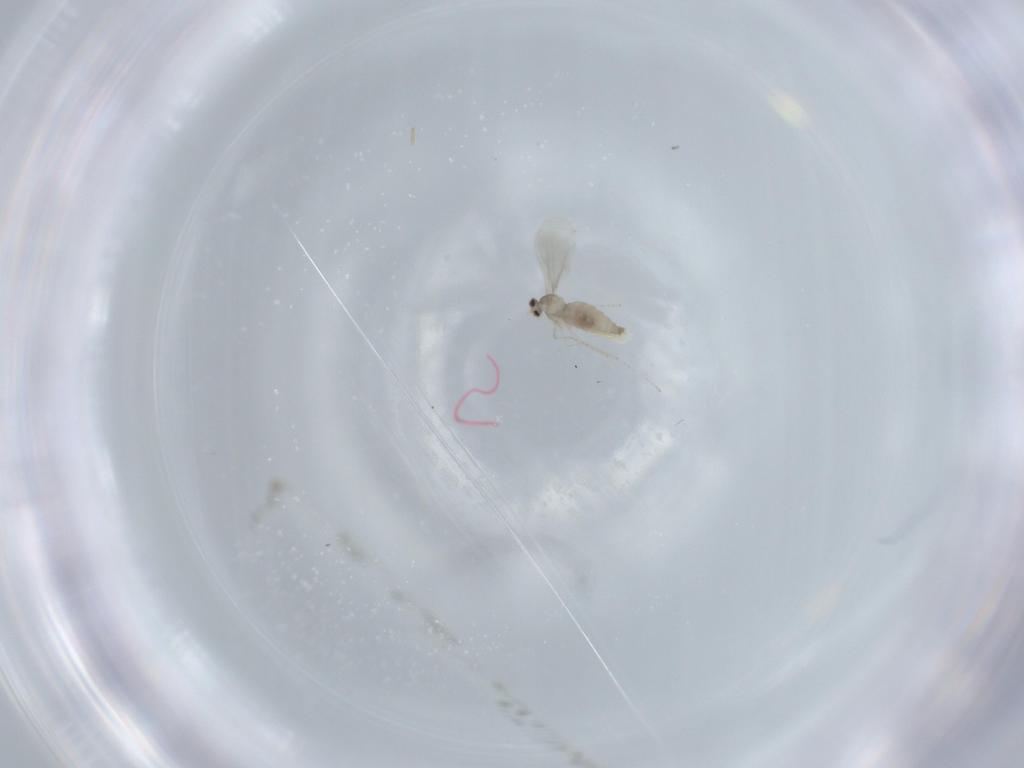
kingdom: Animalia
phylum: Arthropoda
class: Insecta
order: Diptera
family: Cecidomyiidae
